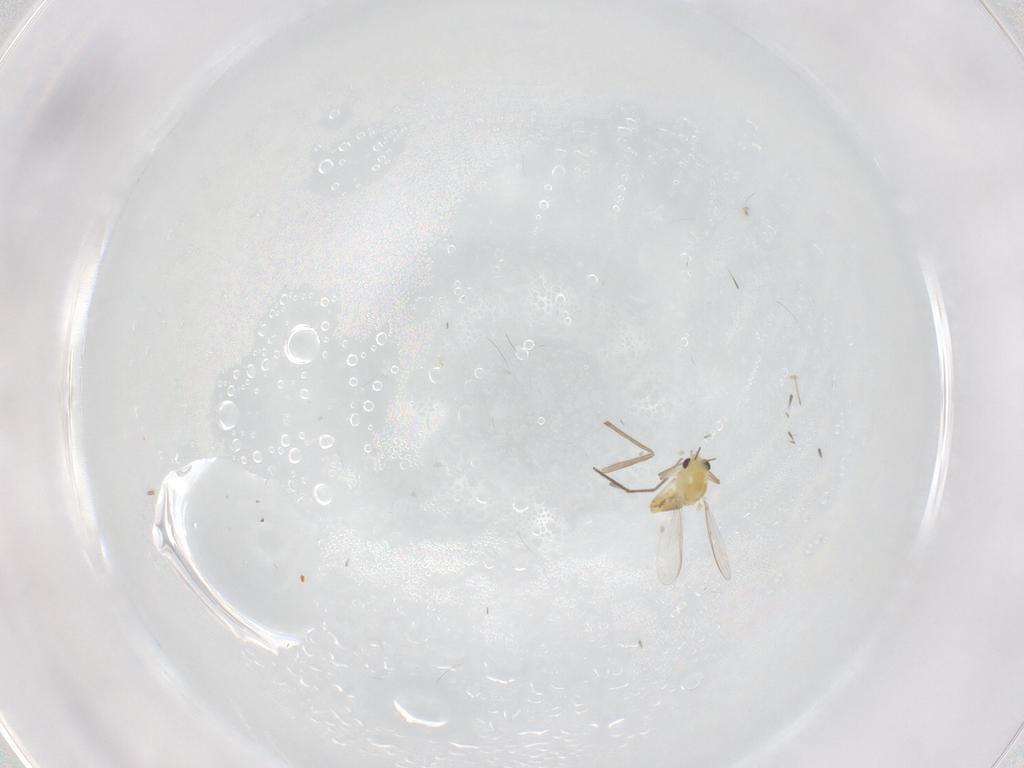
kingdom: Animalia
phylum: Arthropoda
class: Insecta
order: Diptera
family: Chironomidae
